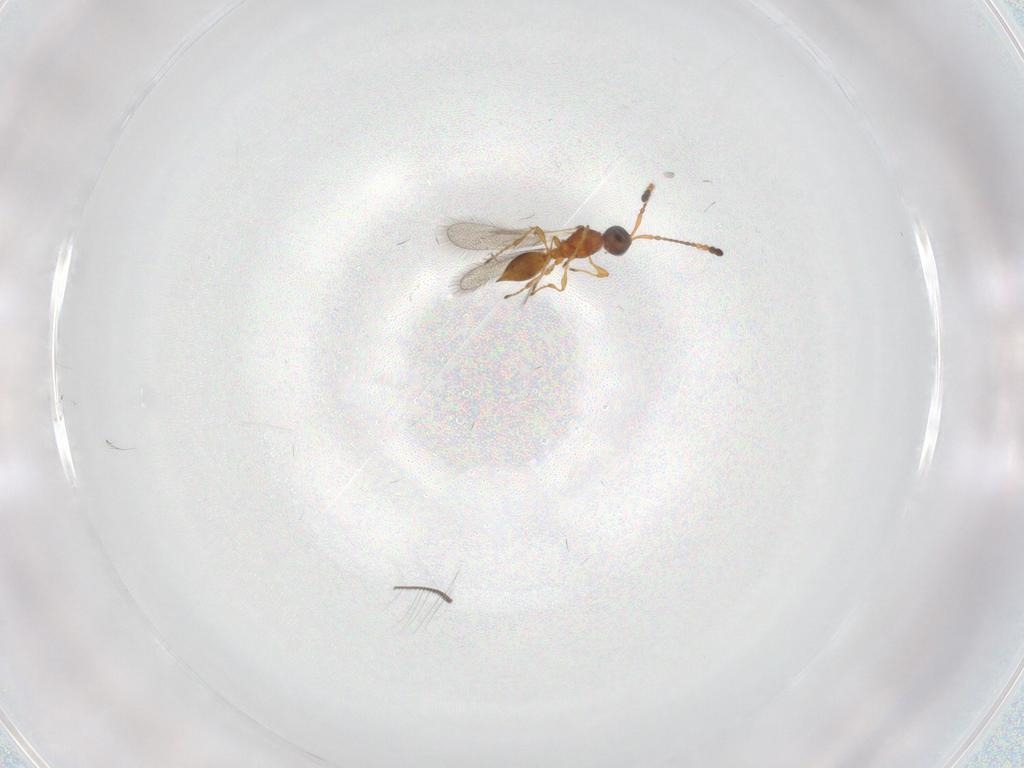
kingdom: Animalia
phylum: Arthropoda
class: Insecta
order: Hymenoptera
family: Diapriidae
